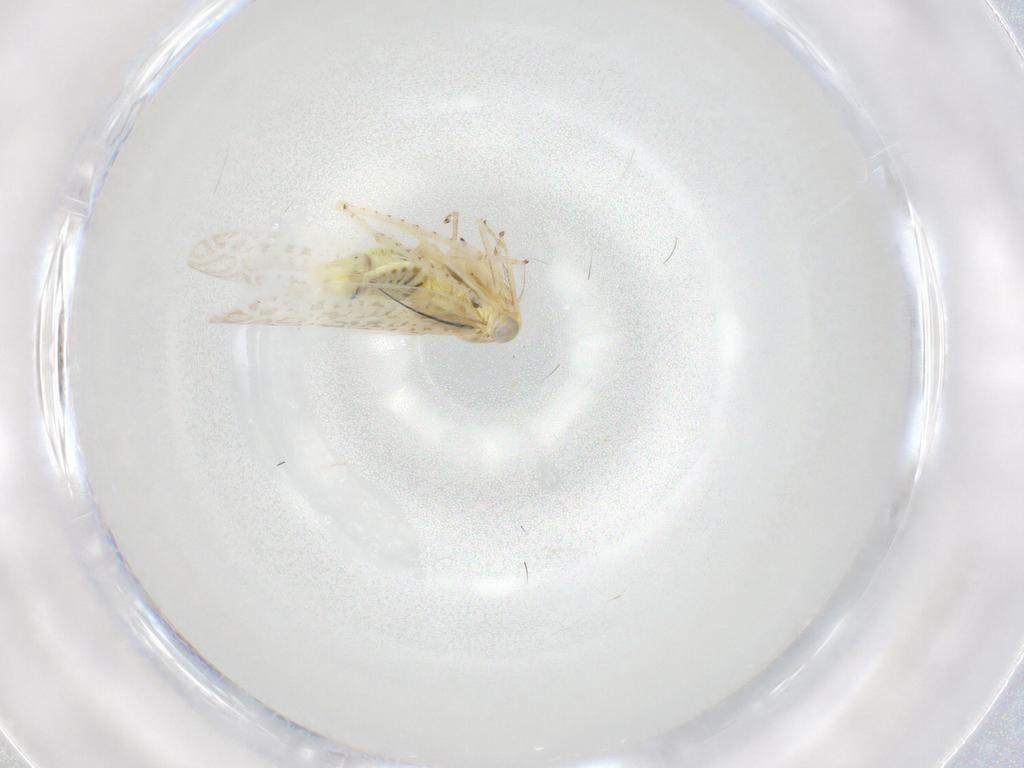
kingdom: Animalia
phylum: Arthropoda
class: Insecta
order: Hemiptera
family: Cicadellidae
